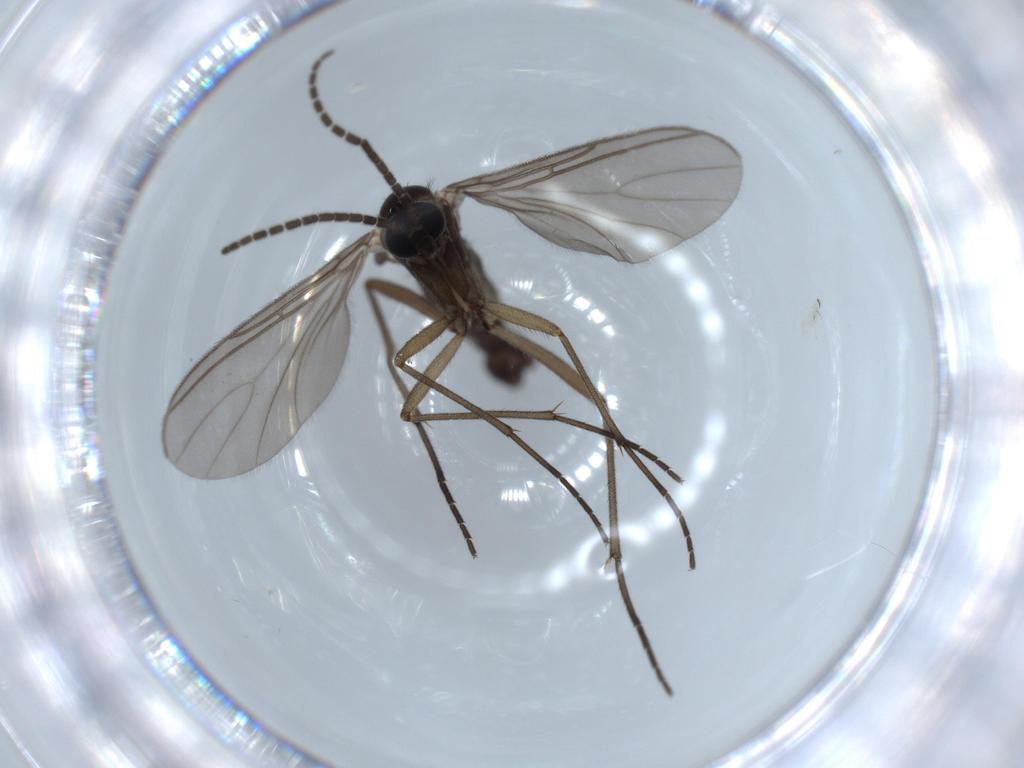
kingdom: Animalia
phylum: Arthropoda
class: Insecta
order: Diptera
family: Sciaridae
